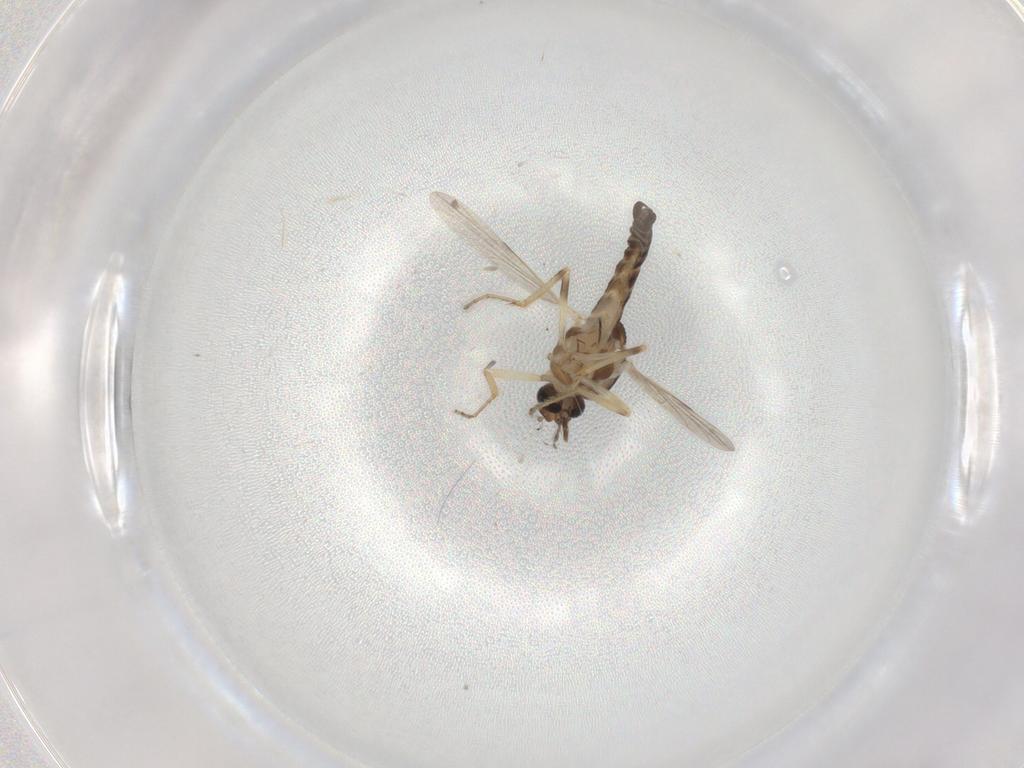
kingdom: Animalia
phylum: Arthropoda
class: Insecta
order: Diptera
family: Ceratopogonidae
